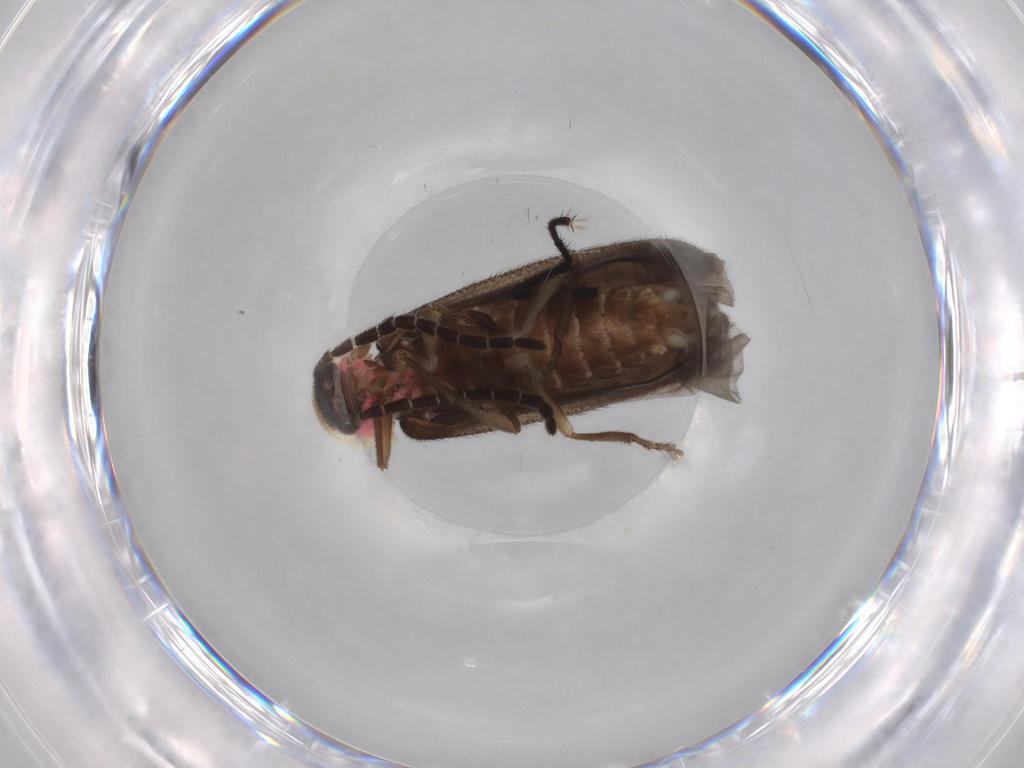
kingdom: Animalia
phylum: Arthropoda
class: Insecta
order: Coleoptera
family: Lampyridae
